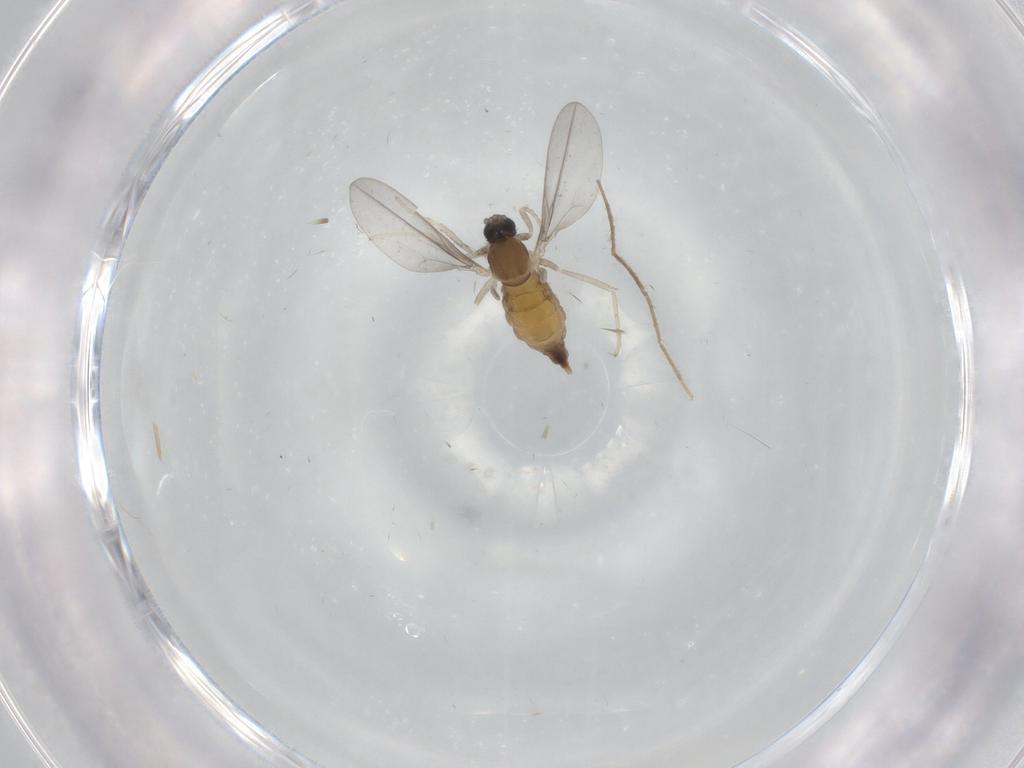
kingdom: Animalia
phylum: Arthropoda
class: Insecta
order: Diptera
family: Cecidomyiidae
